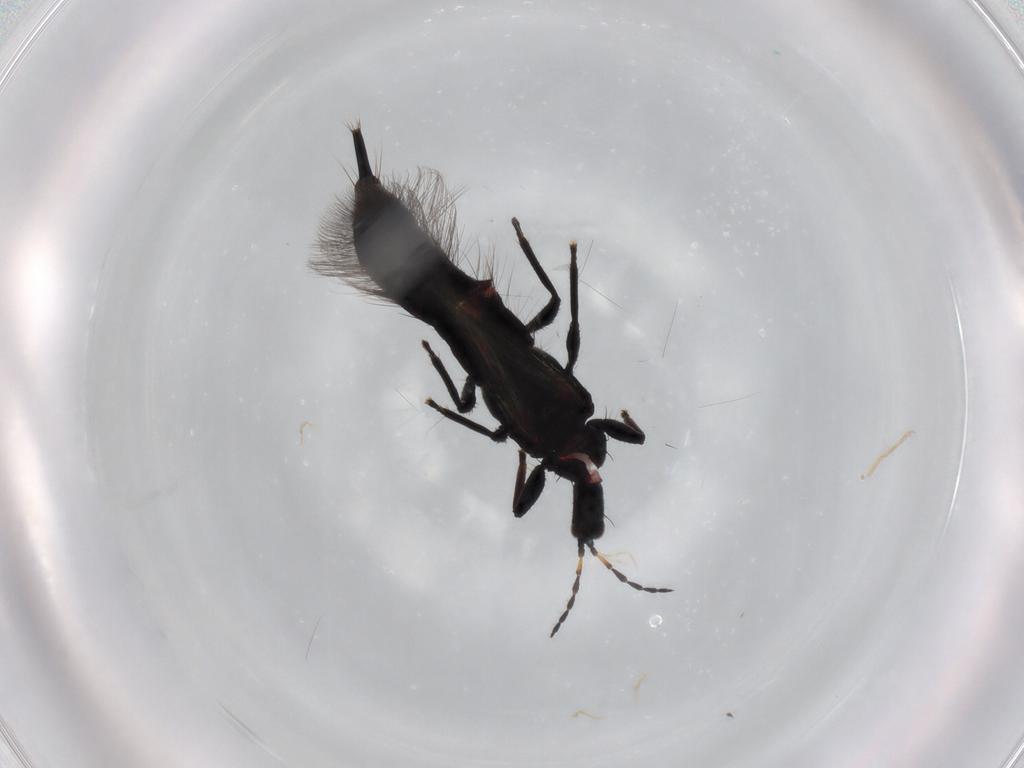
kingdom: Animalia
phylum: Arthropoda
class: Insecta
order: Thysanoptera
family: Phlaeothripidae
